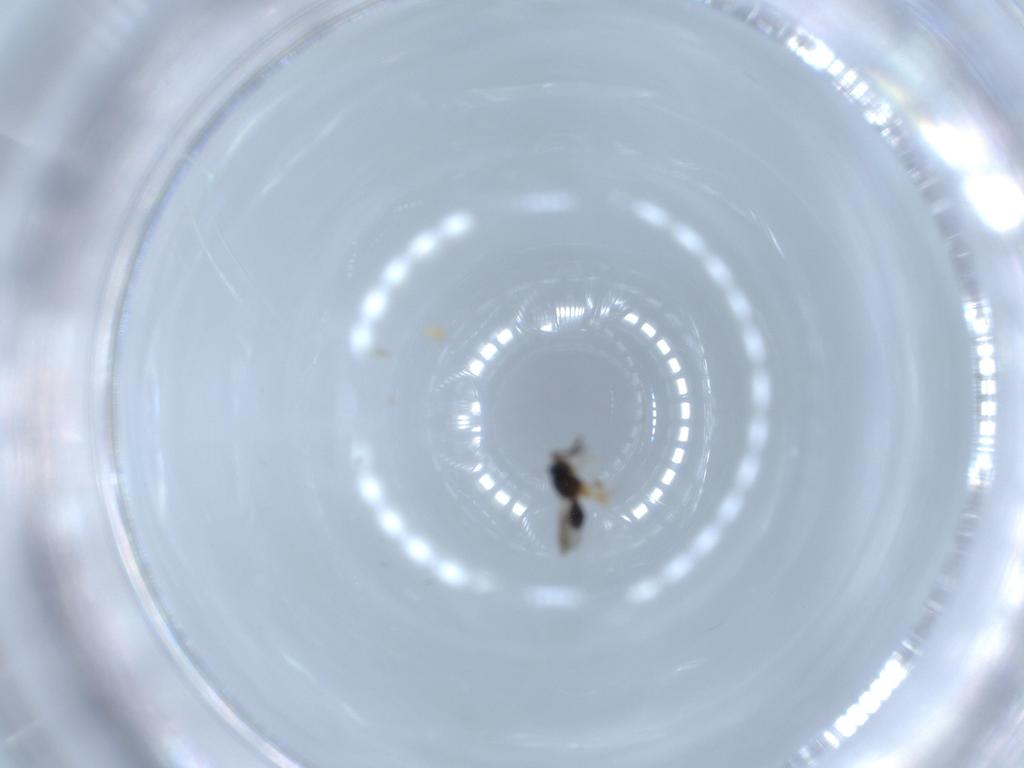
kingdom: Animalia
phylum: Arthropoda
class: Insecta
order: Hymenoptera
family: Scelionidae
